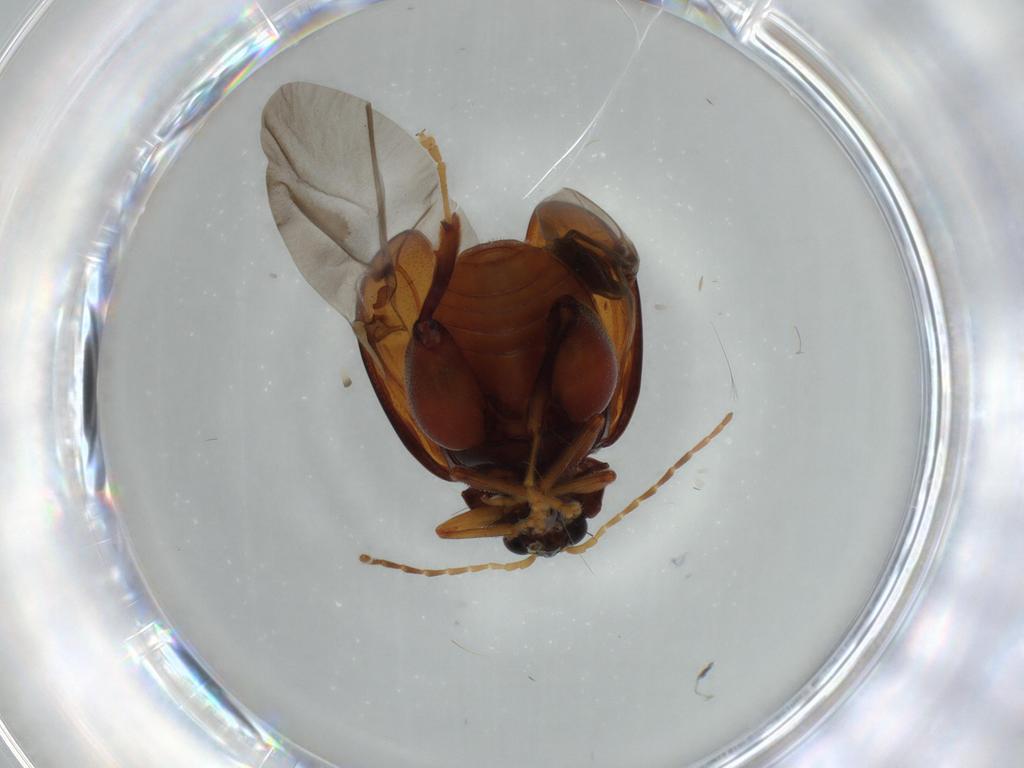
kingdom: Animalia
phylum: Arthropoda
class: Insecta
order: Coleoptera
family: Chrysomelidae
